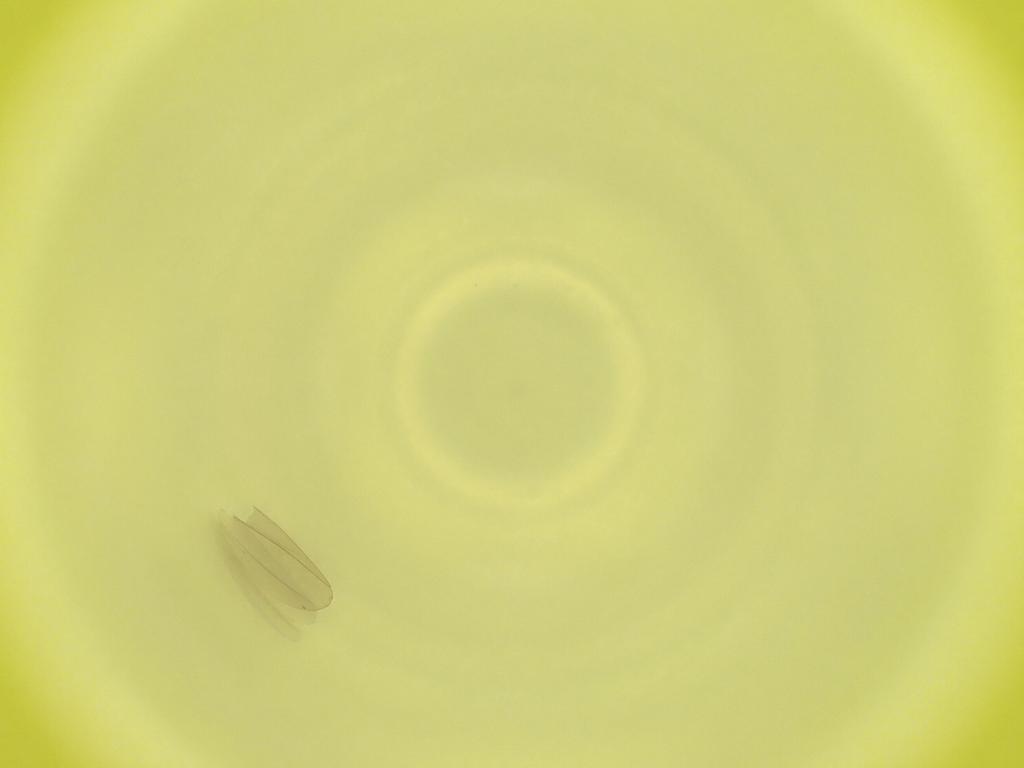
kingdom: Animalia
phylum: Arthropoda
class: Insecta
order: Diptera
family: Cecidomyiidae
